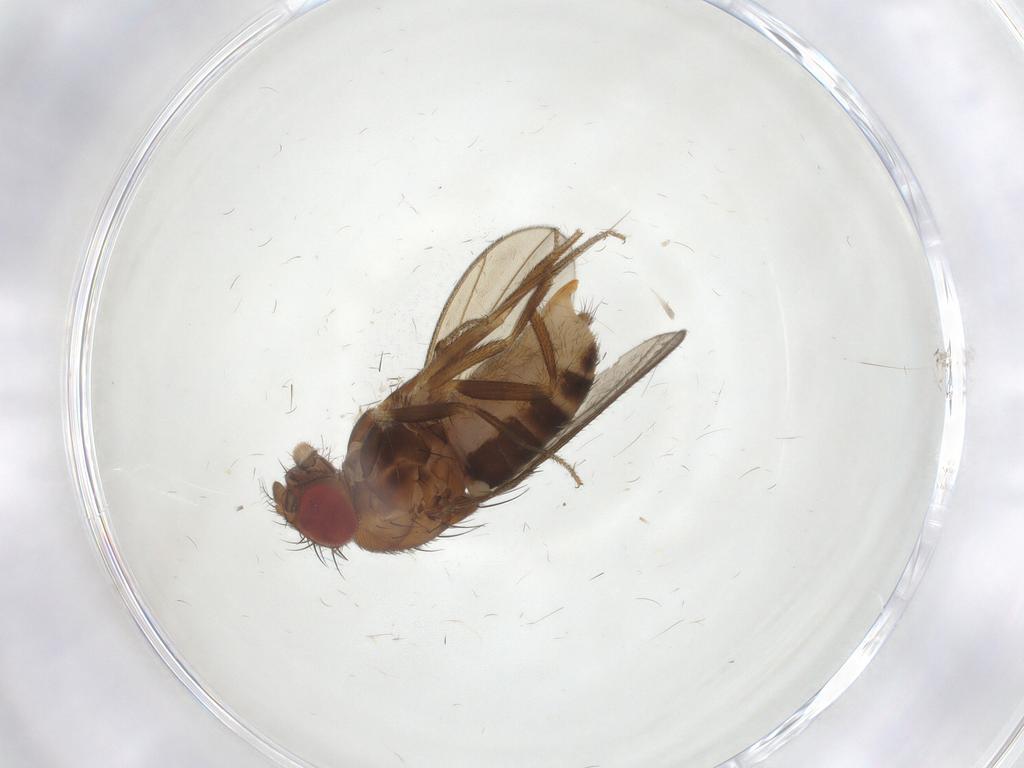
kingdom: Animalia
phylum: Arthropoda
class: Insecta
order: Diptera
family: Drosophilidae
